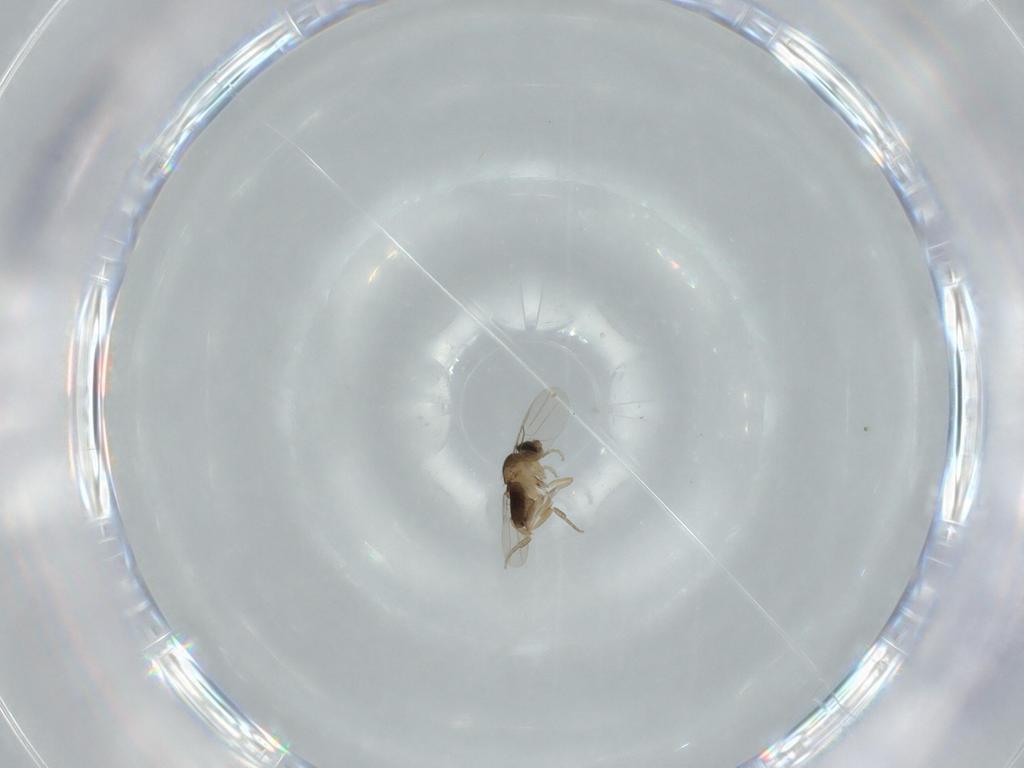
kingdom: Animalia
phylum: Arthropoda
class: Insecta
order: Diptera
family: Phoridae
